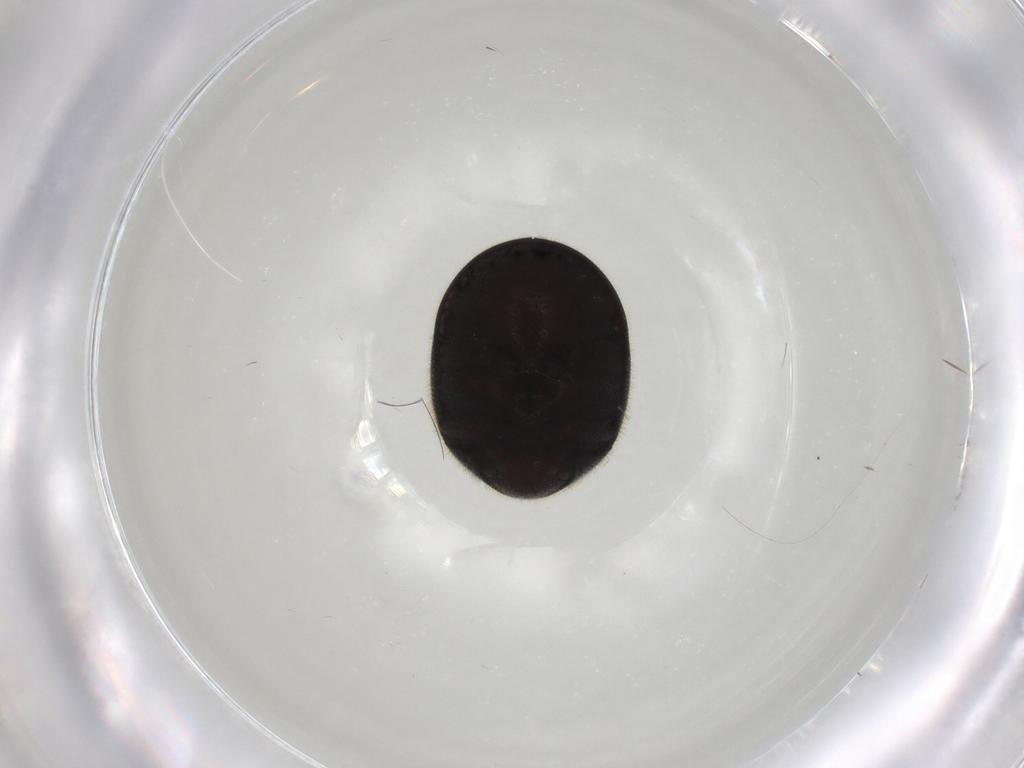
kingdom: Animalia
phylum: Arthropoda
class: Insecta
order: Coleoptera
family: Ptinidae
